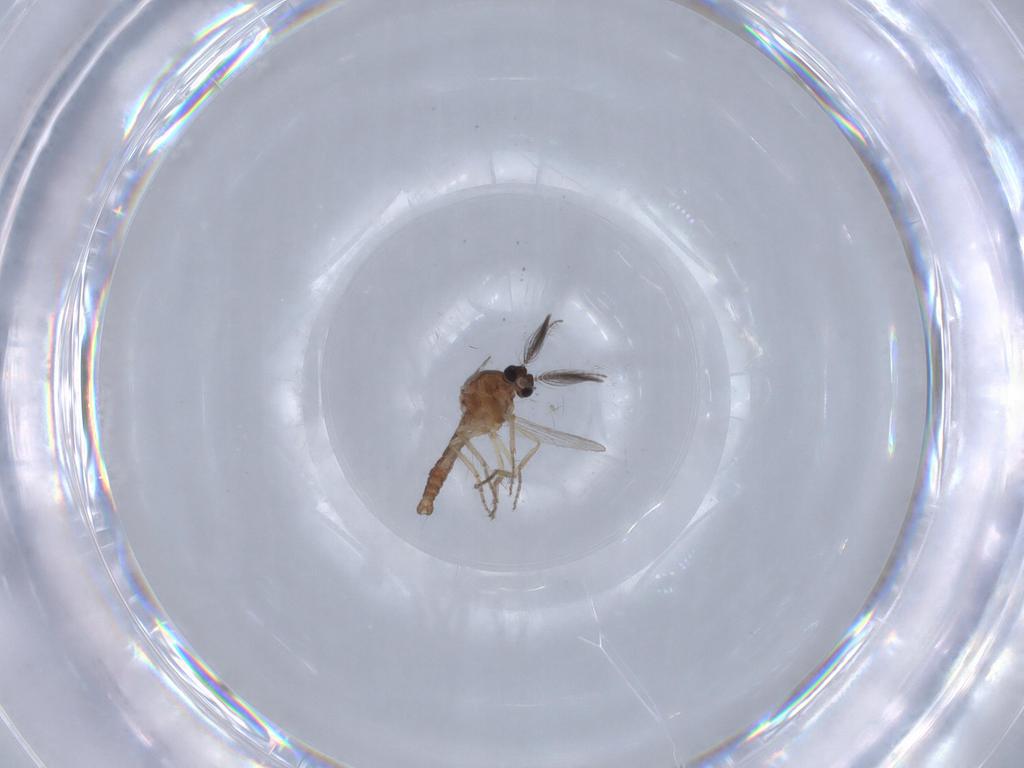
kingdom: Animalia
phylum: Arthropoda
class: Insecta
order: Diptera
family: Ceratopogonidae
